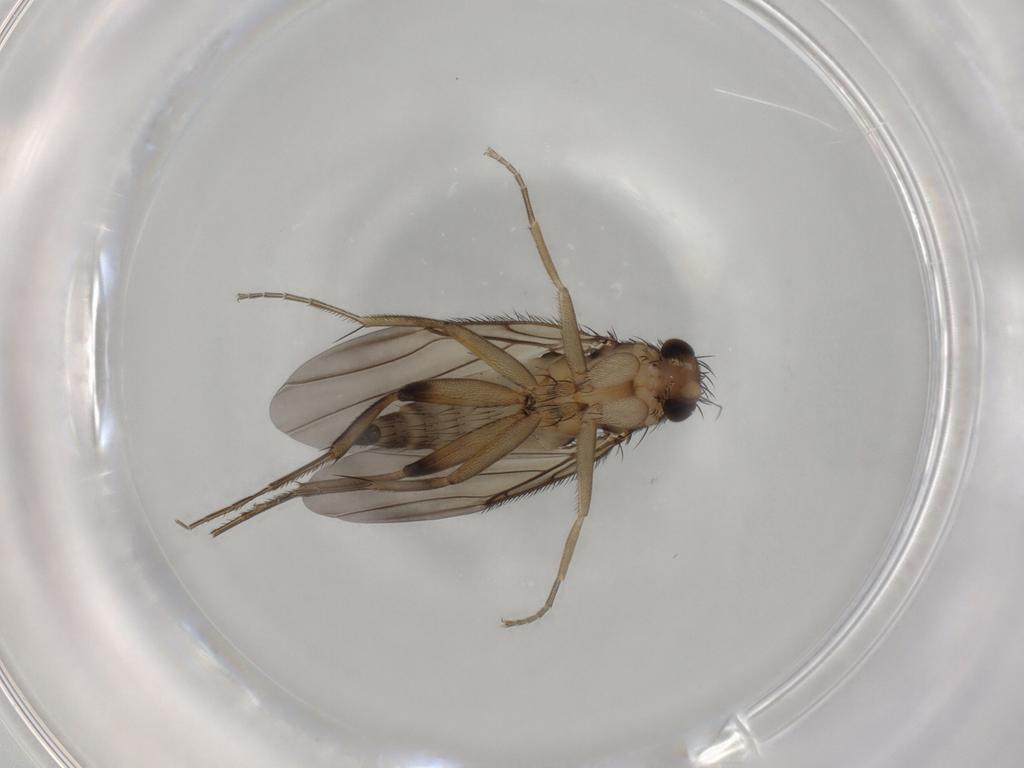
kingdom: Animalia
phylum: Arthropoda
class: Insecta
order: Diptera
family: Phoridae
